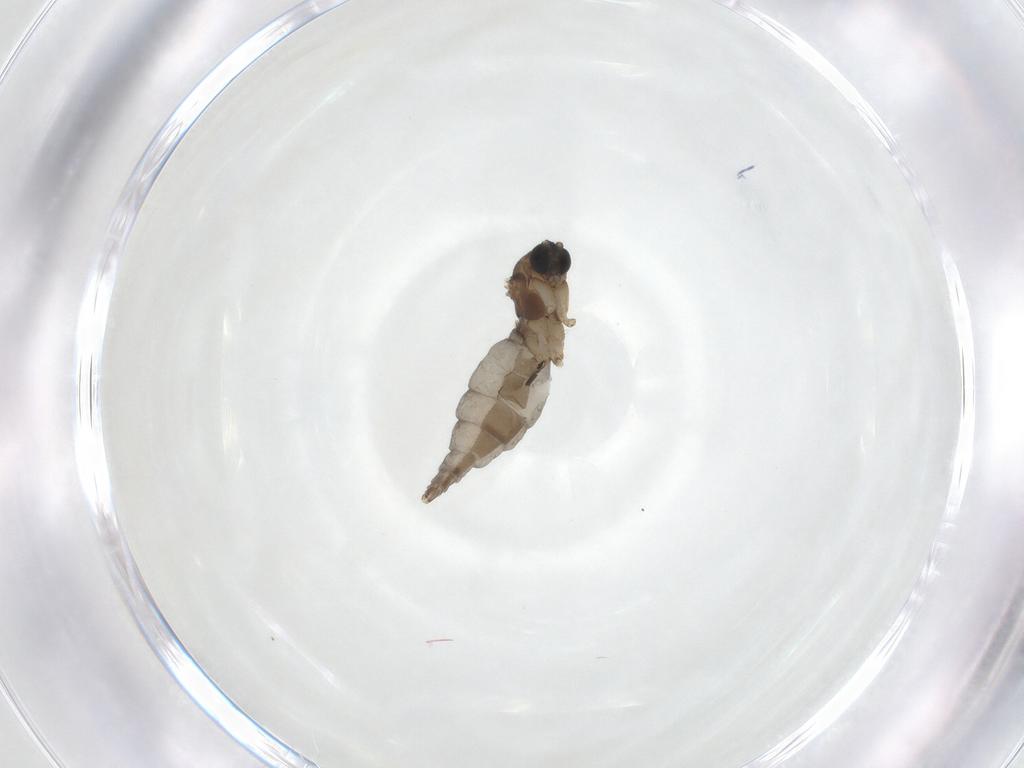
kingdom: Animalia
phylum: Arthropoda
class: Insecta
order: Diptera
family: Sciaridae
